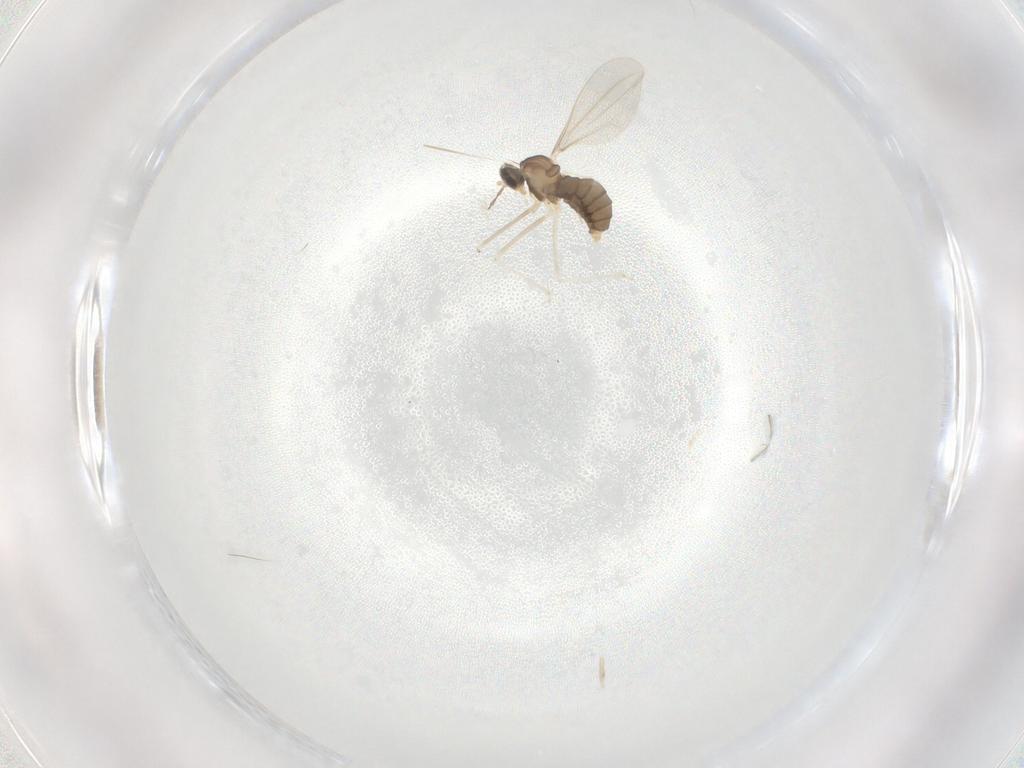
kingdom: Animalia
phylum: Arthropoda
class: Insecta
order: Diptera
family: Cecidomyiidae
